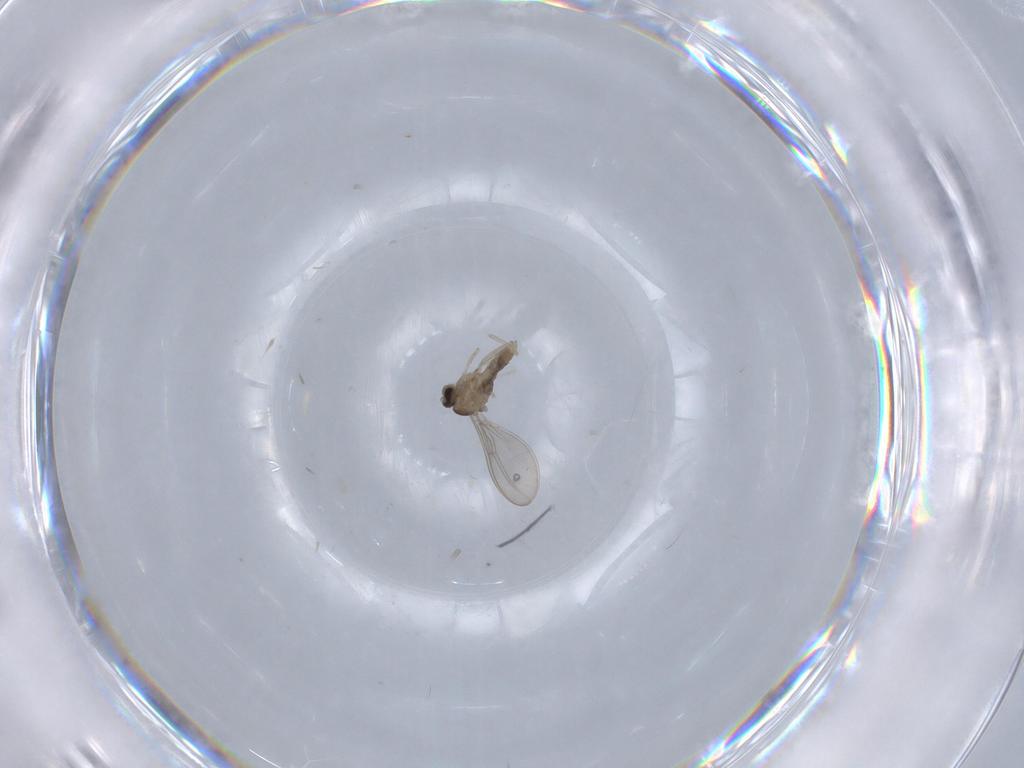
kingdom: Animalia
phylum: Arthropoda
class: Insecta
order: Diptera
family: Cecidomyiidae
